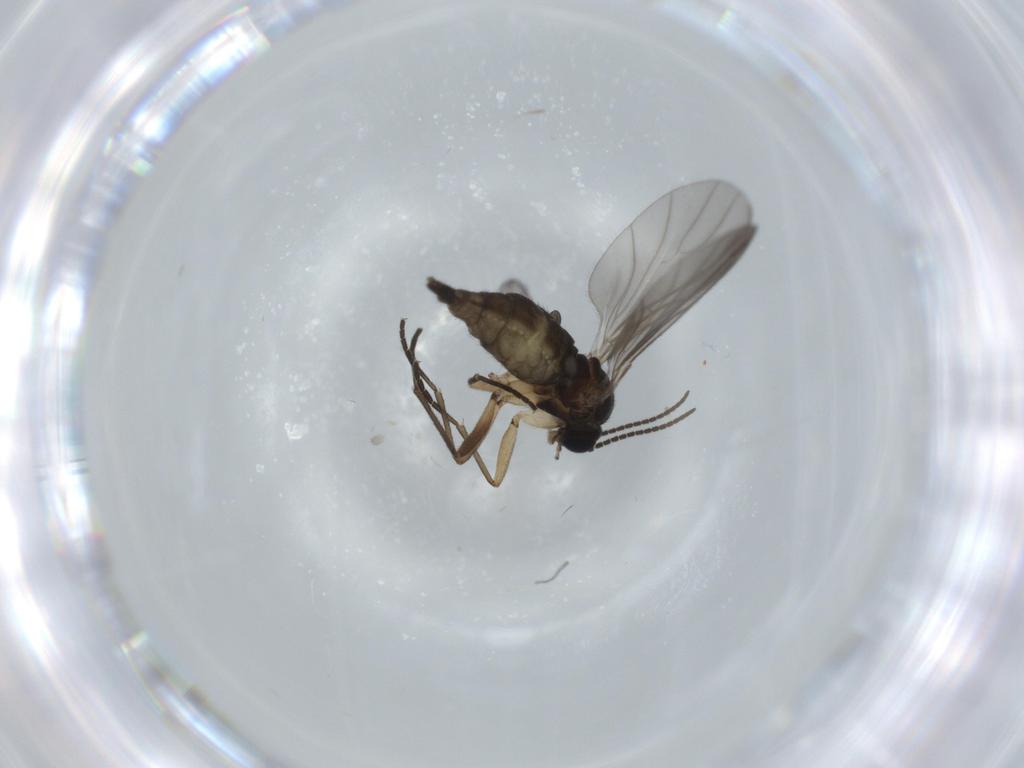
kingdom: Animalia
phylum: Arthropoda
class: Insecta
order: Diptera
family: Sciaridae
